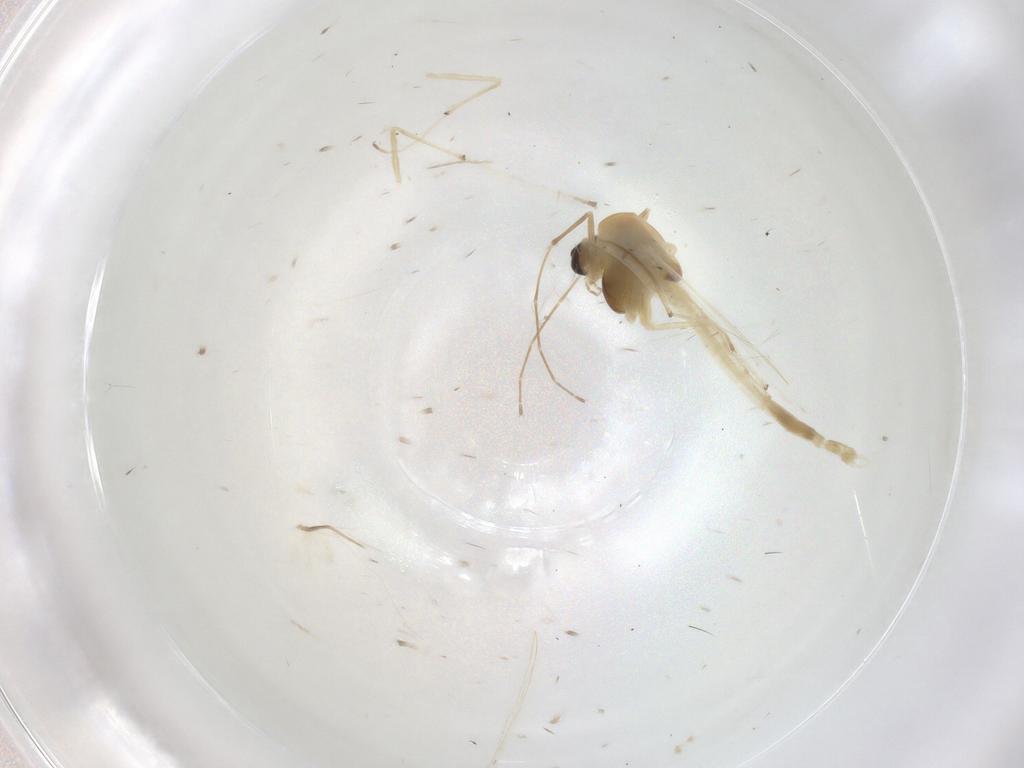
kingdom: Animalia
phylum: Arthropoda
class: Insecta
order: Diptera
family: Chironomidae
